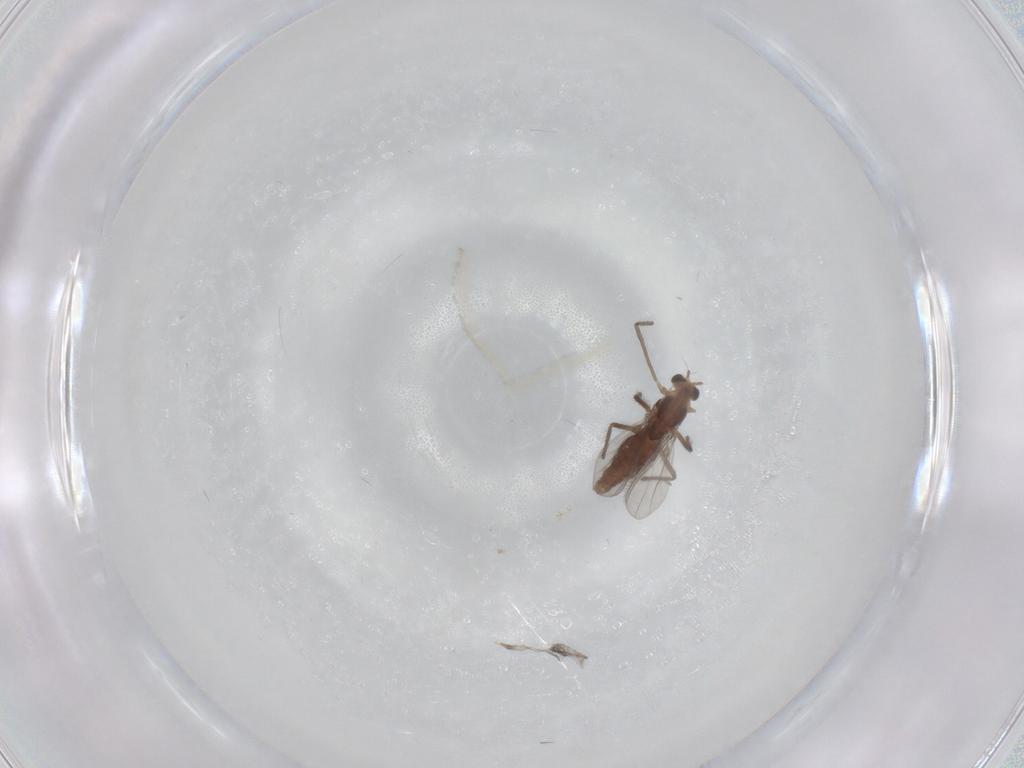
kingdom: Animalia
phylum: Arthropoda
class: Insecta
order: Diptera
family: Chironomidae
